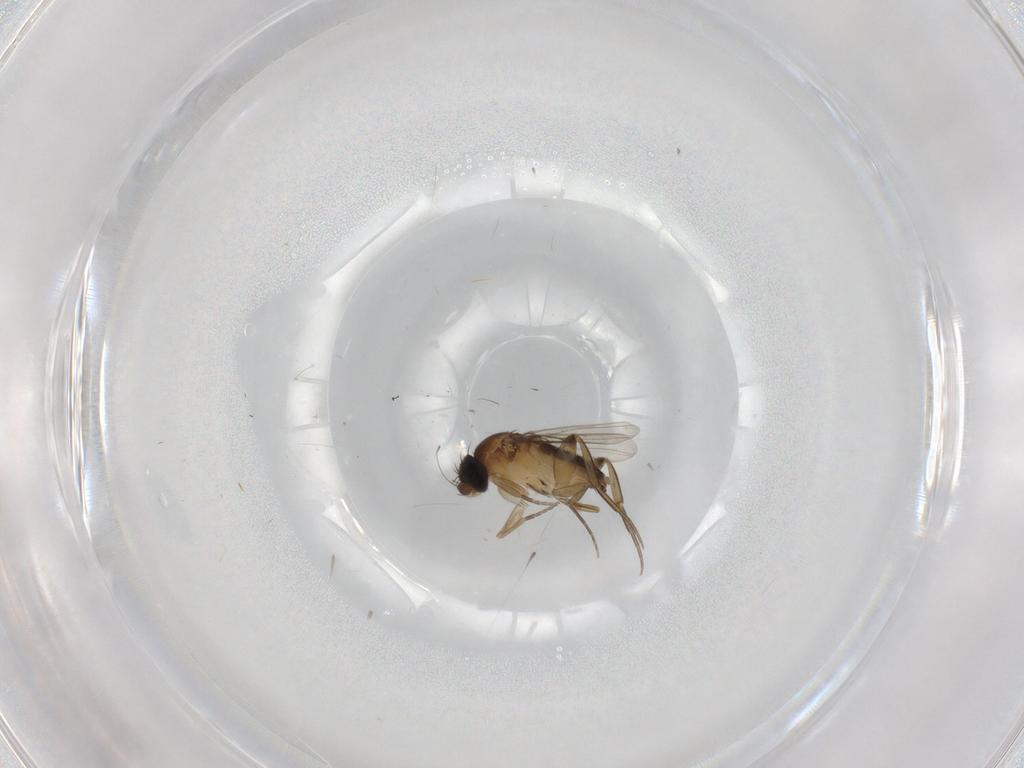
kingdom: Animalia
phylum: Arthropoda
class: Insecta
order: Diptera
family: Phoridae
